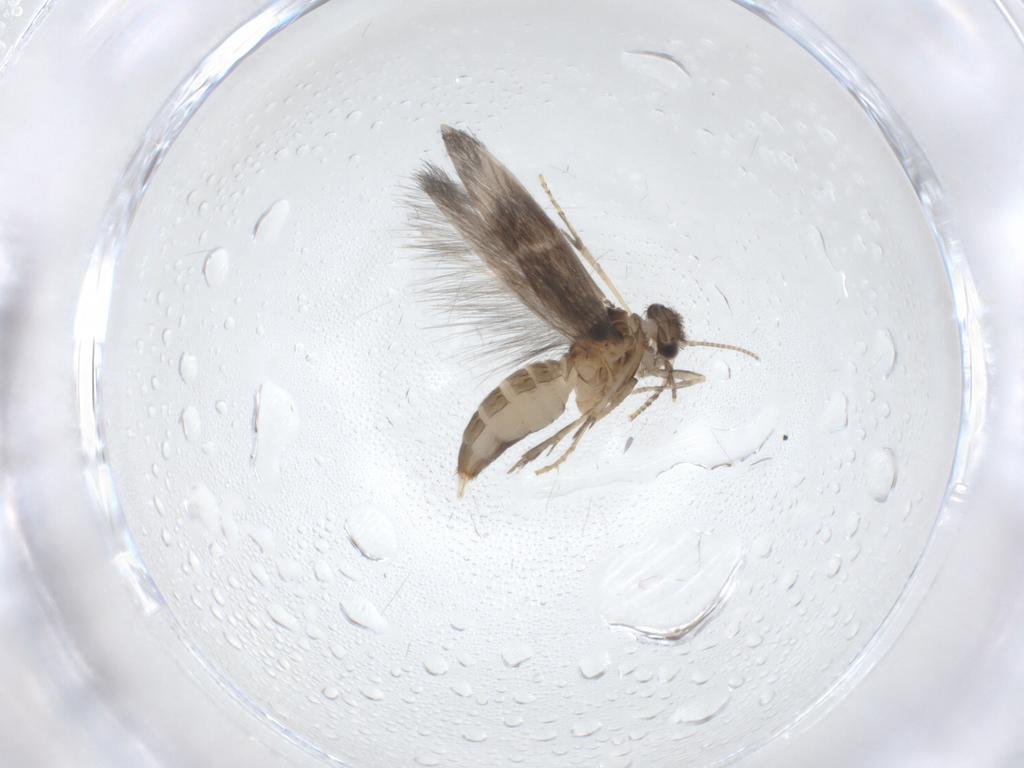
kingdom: Animalia
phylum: Arthropoda
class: Insecta
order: Trichoptera
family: Hydroptilidae
